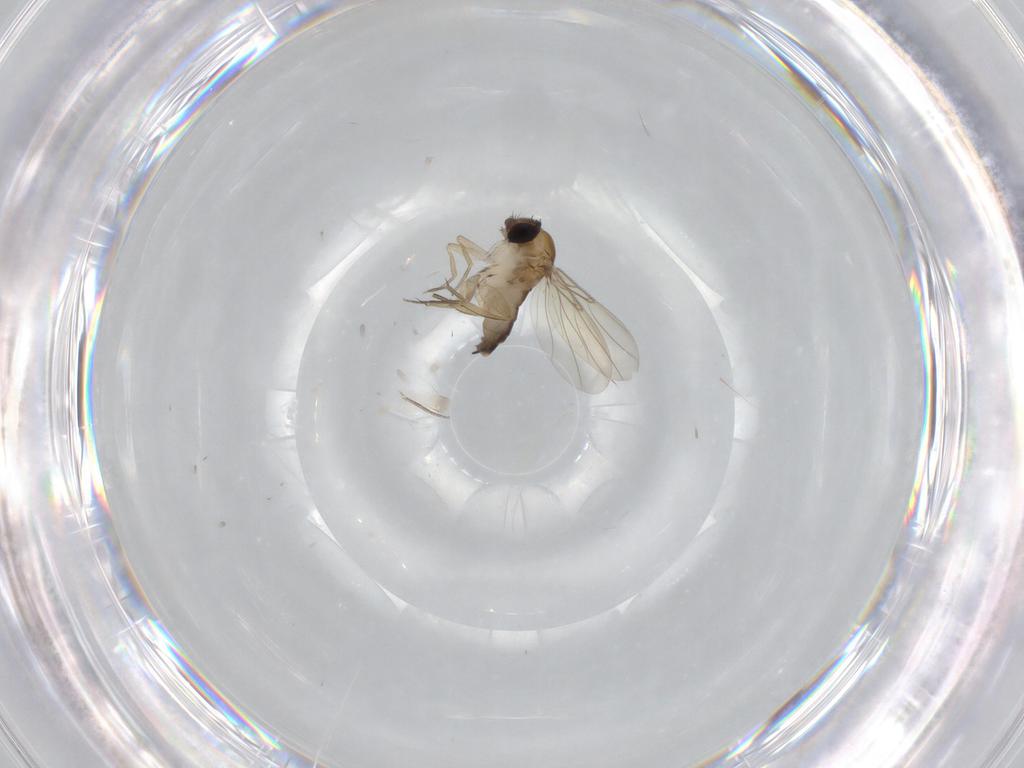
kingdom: Animalia
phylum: Arthropoda
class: Insecta
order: Diptera
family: Phoridae
